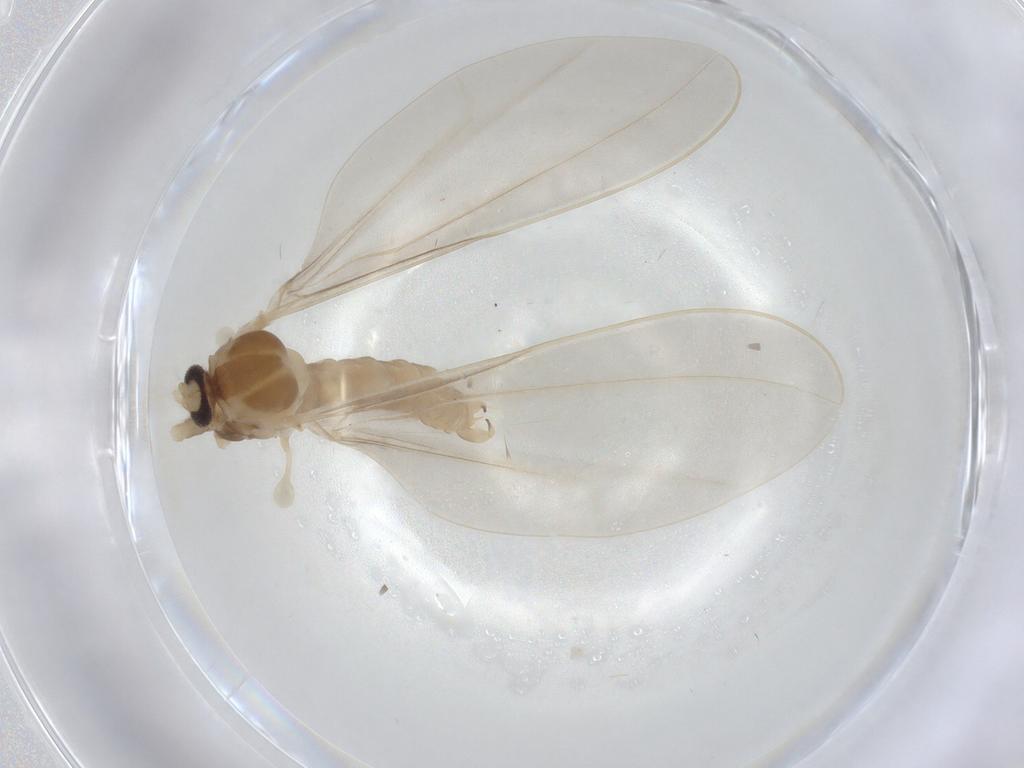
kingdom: Animalia
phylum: Arthropoda
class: Insecta
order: Diptera
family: Cecidomyiidae
